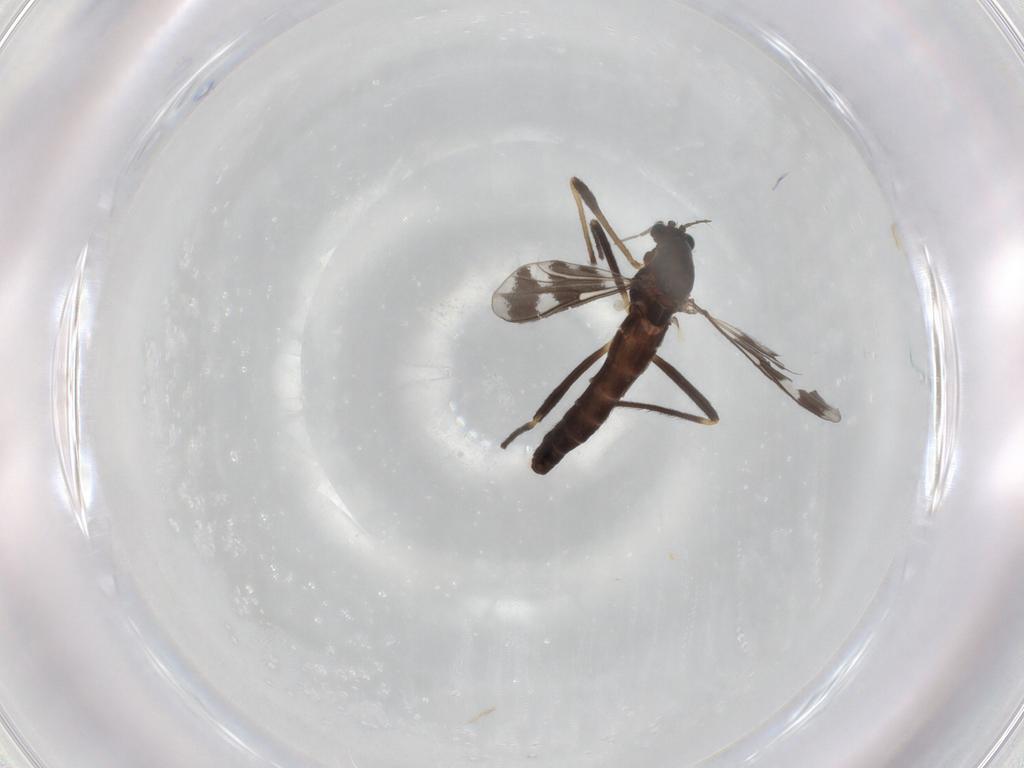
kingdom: Animalia
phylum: Arthropoda
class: Insecta
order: Diptera
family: Chironomidae
